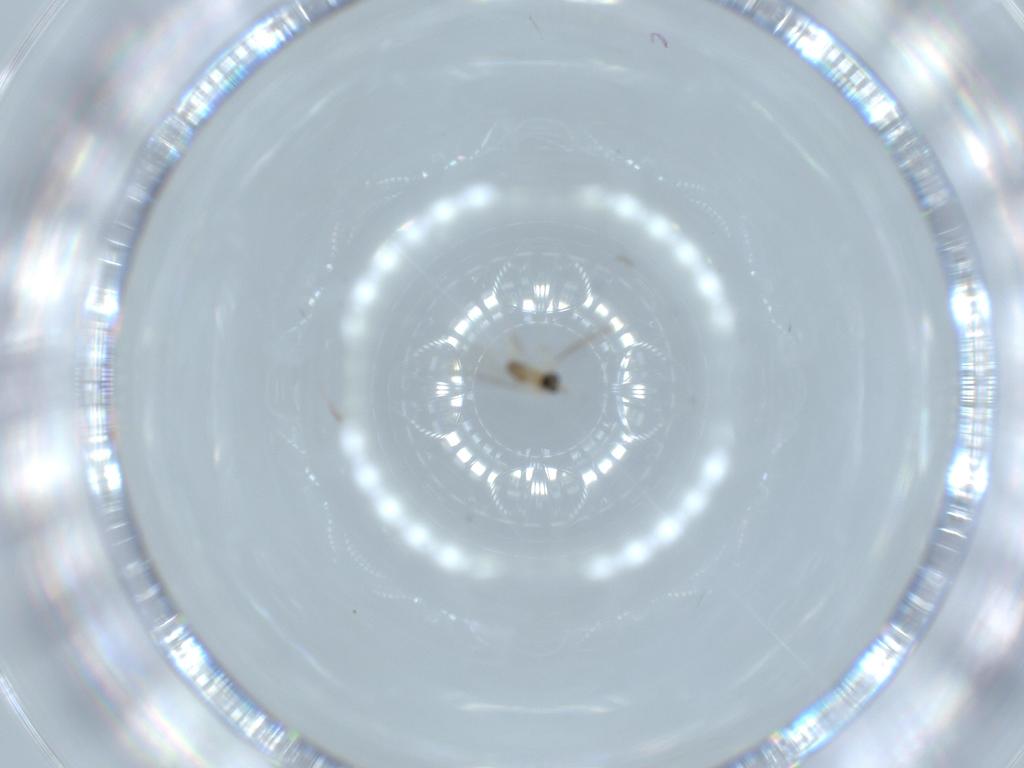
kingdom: Animalia
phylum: Arthropoda
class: Insecta
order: Diptera
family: Cecidomyiidae
